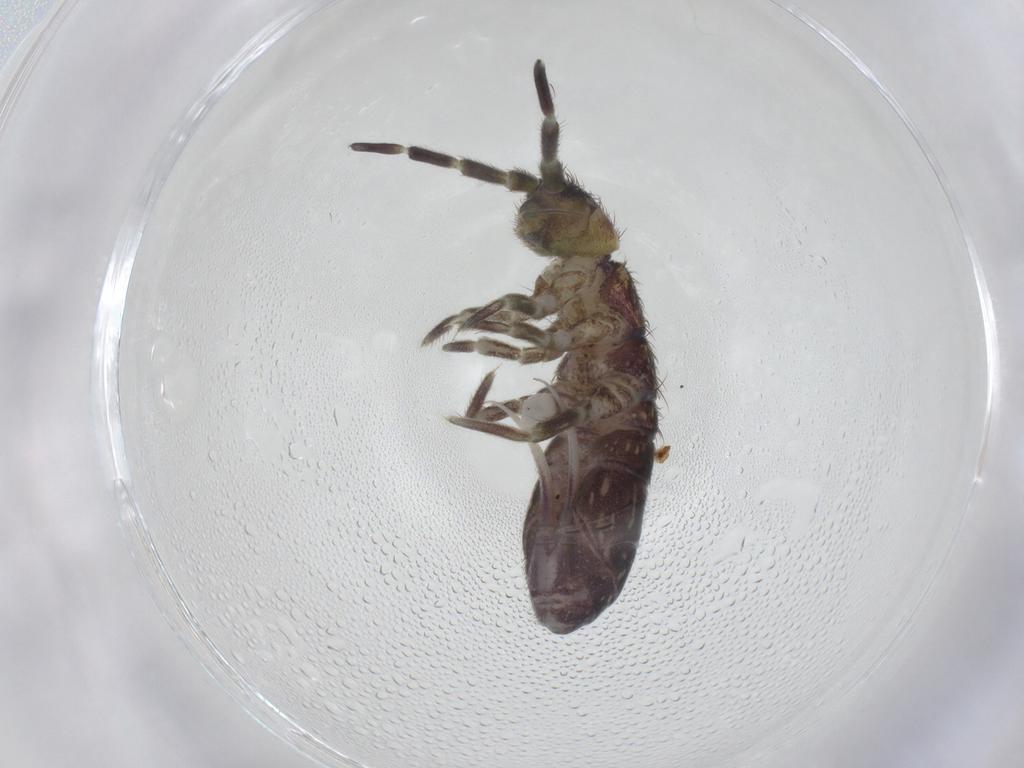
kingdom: Animalia
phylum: Arthropoda
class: Collembola
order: Entomobryomorpha
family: Isotomidae
